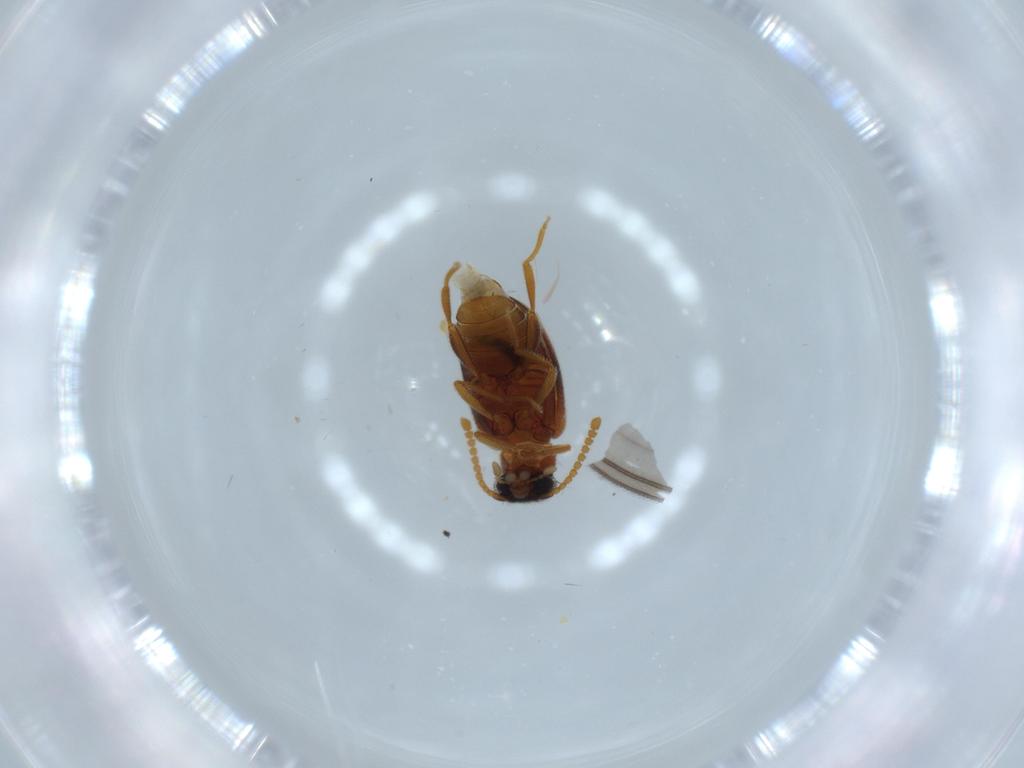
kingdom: Animalia
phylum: Arthropoda
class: Insecta
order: Coleoptera
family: Aderidae
